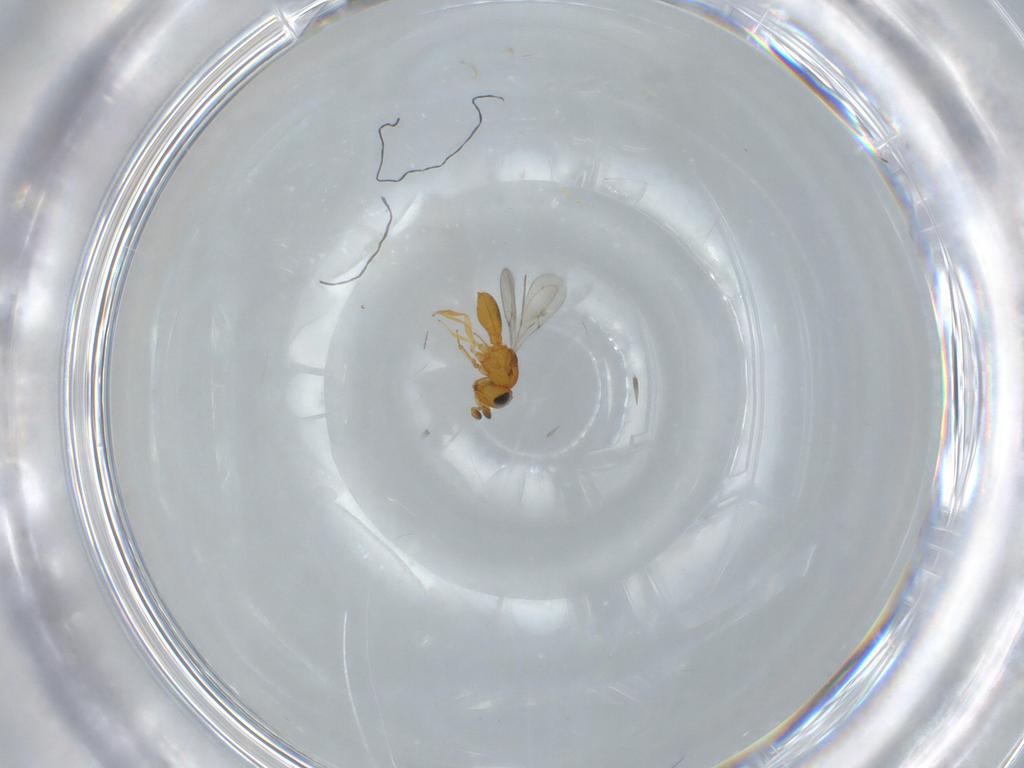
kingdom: Animalia
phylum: Arthropoda
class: Insecta
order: Hymenoptera
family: Scelionidae
